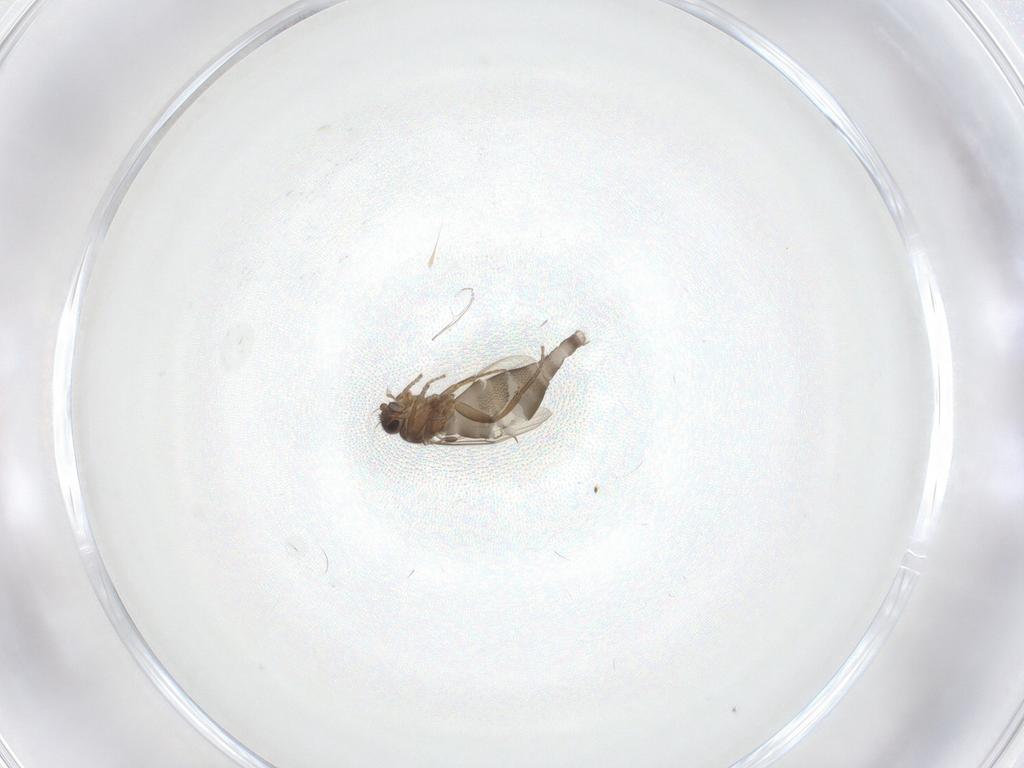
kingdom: Animalia
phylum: Arthropoda
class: Insecta
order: Diptera
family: Phoridae
